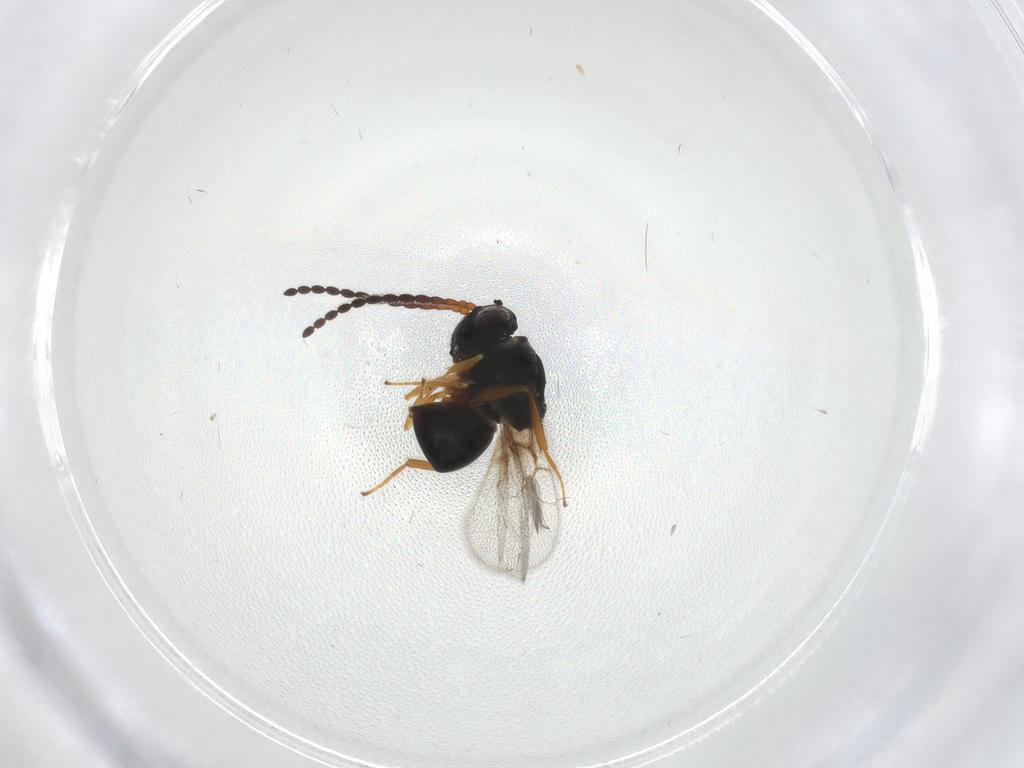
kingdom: Animalia
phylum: Arthropoda
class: Insecta
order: Hymenoptera
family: Figitidae
